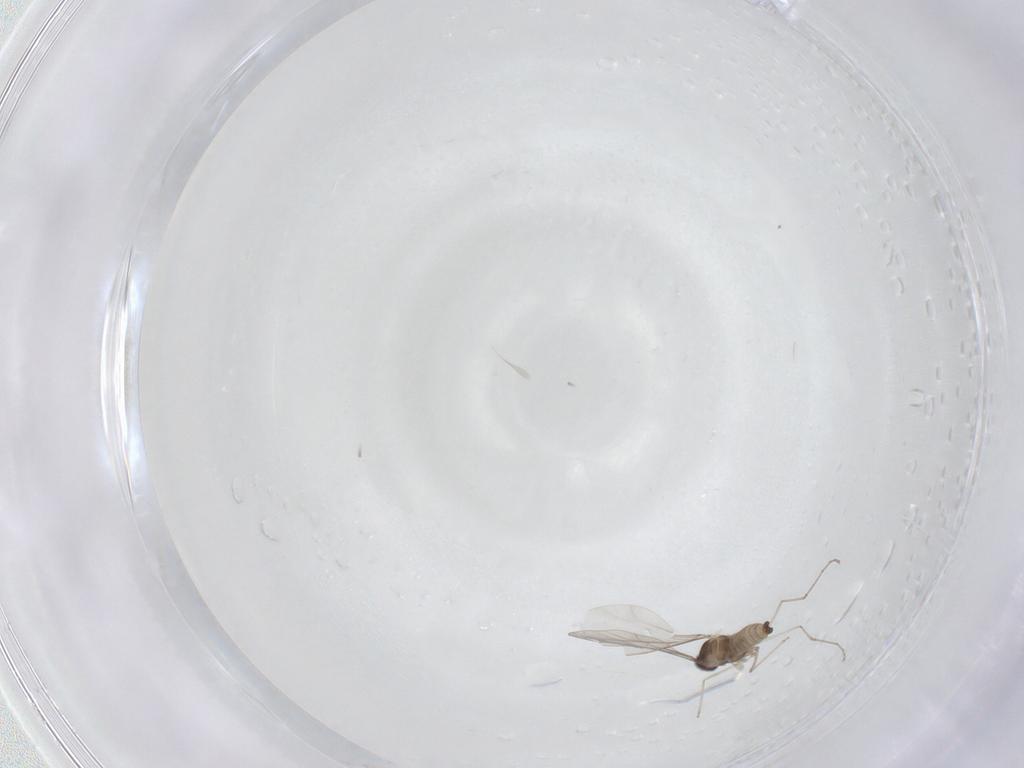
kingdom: Animalia
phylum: Arthropoda
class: Insecta
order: Diptera
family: Cecidomyiidae
